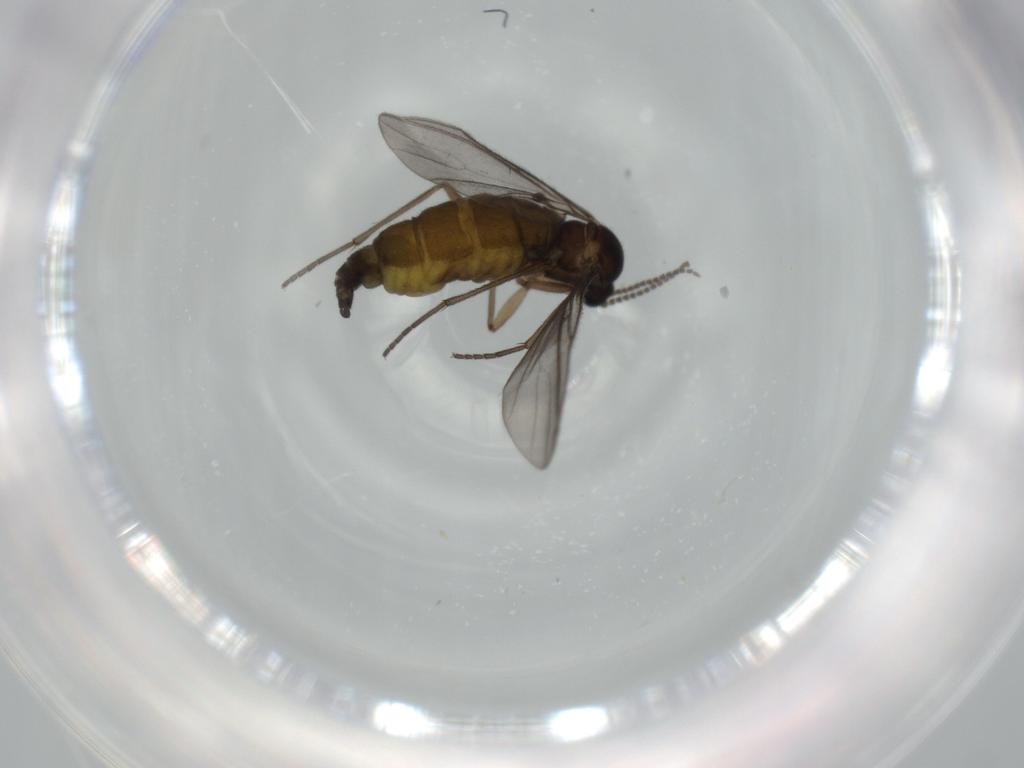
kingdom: Animalia
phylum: Arthropoda
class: Insecta
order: Diptera
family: Sciaridae
